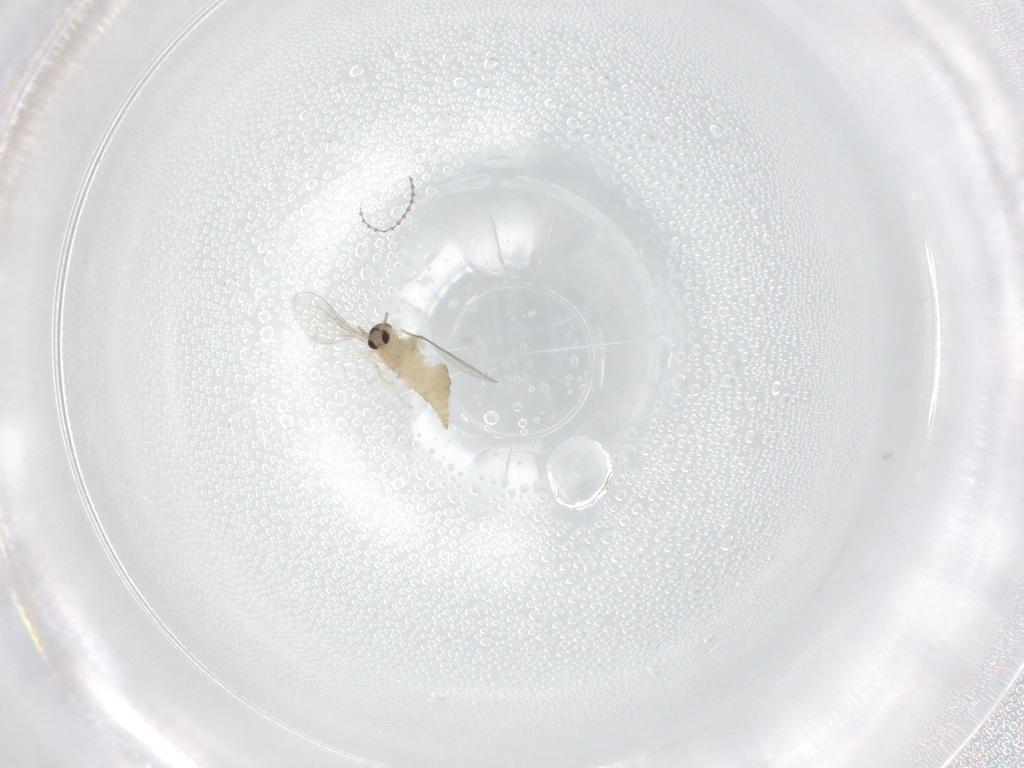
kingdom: Animalia
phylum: Arthropoda
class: Insecta
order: Diptera
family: Cecidomyiidae
